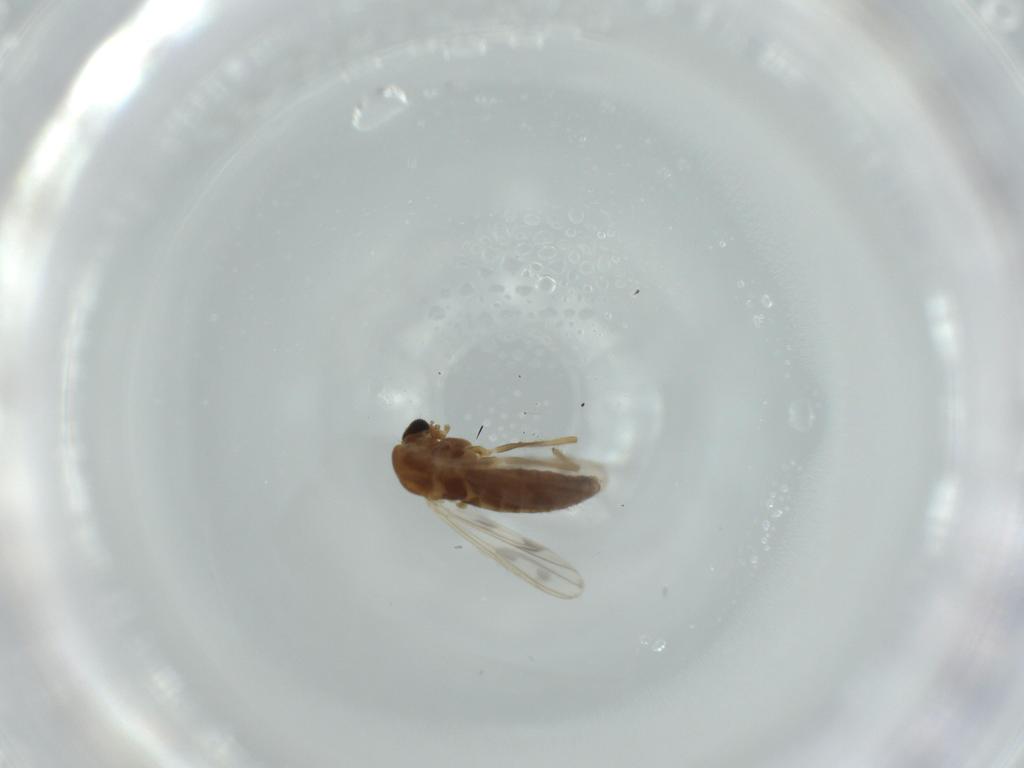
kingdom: Animalia
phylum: Arthropoda
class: Insecta
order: Diptera
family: Chironomidae
